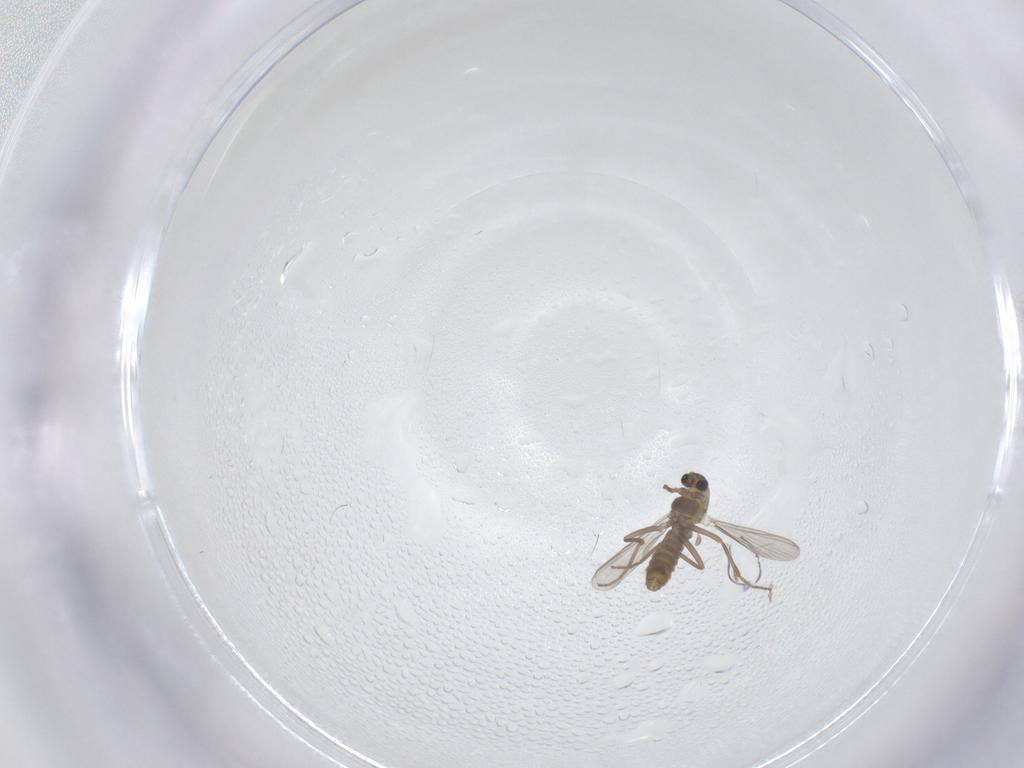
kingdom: Animalia
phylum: Arthropoda
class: Insecta
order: Diptera
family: Chironomidae
